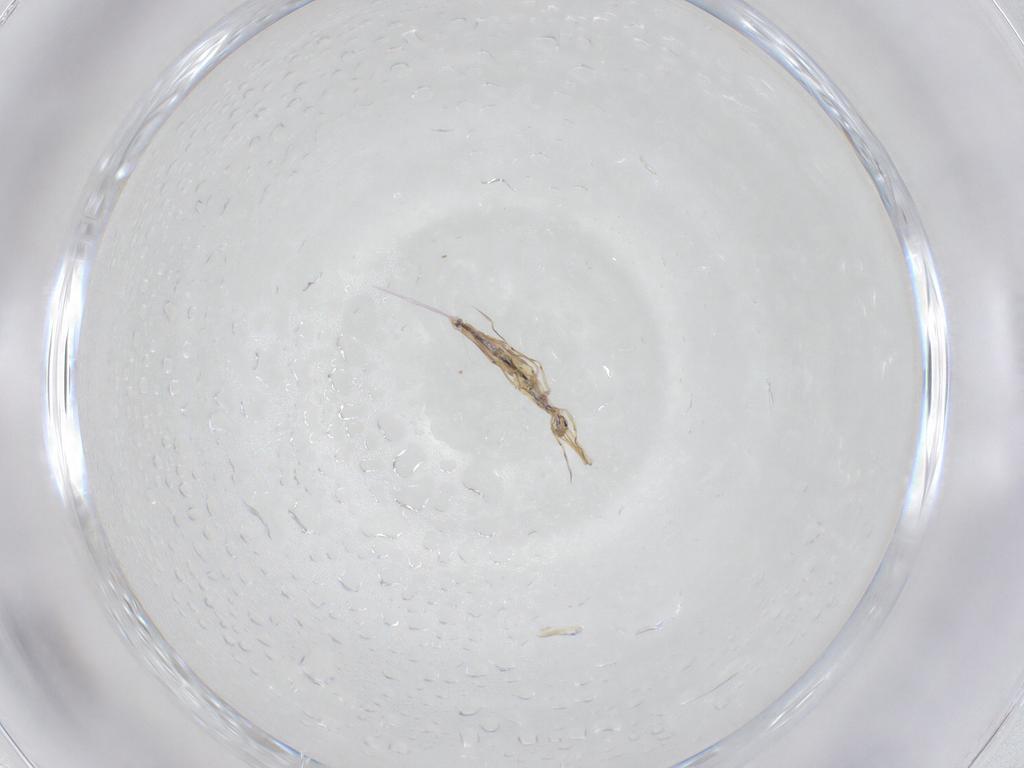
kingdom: Animalia
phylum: Arthropoda
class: Collembola
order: Entomobryomorpha
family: Entomobryidae
